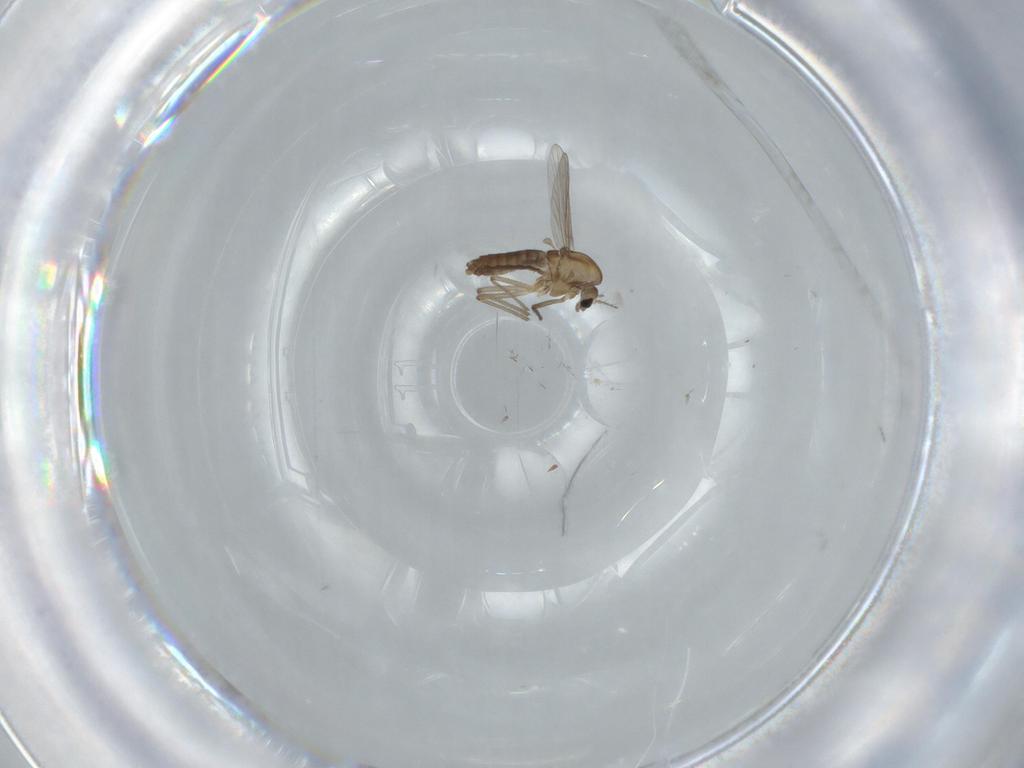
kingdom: Animalia
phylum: Arthropoda
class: Insecta
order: Diptera
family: Chironomidae
